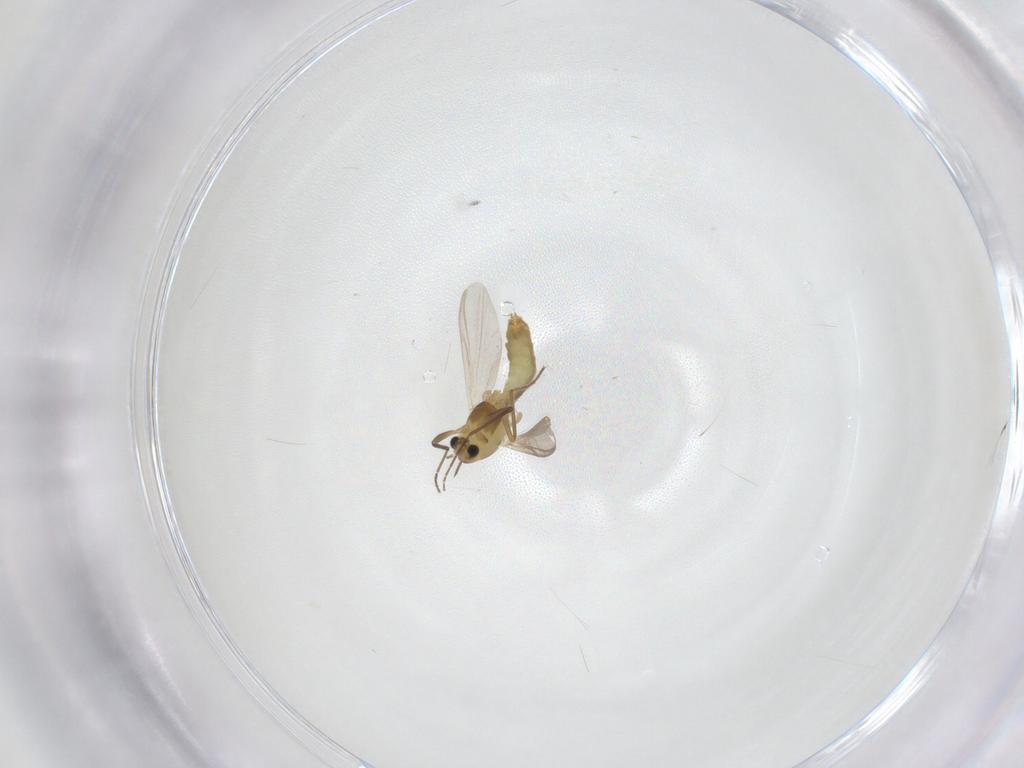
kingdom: Animalia
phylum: Arthropoda
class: Insecta
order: Diptera
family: Chironomidae
